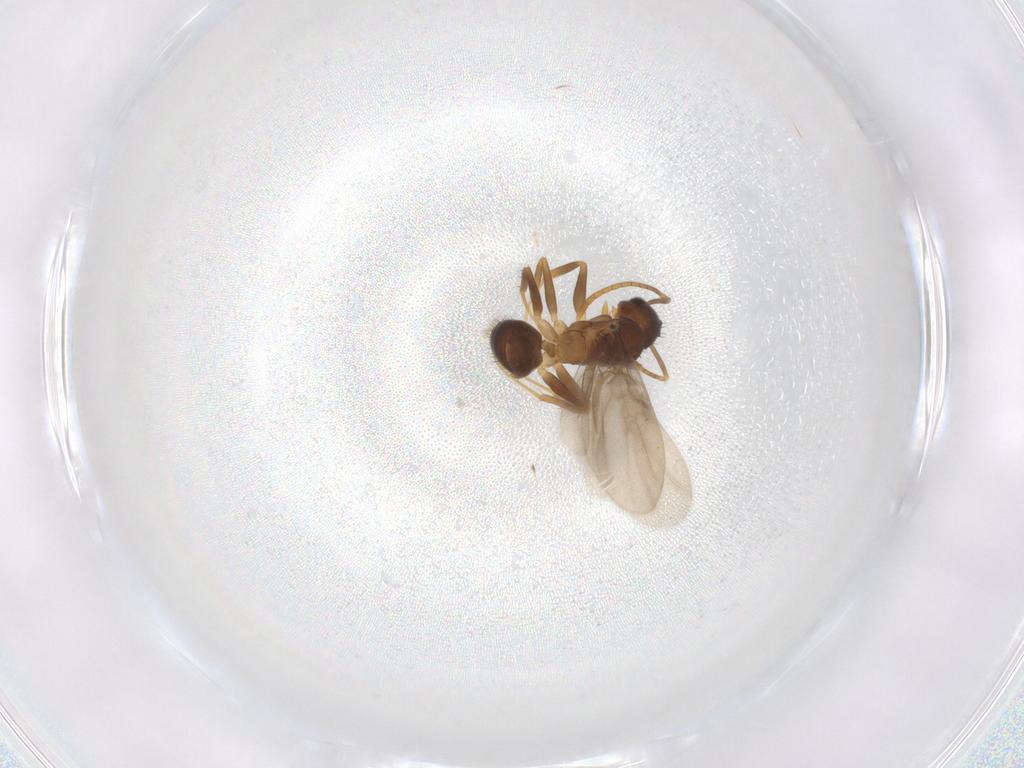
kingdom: Animalia
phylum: Arthropoda
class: Insecta
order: Hymenoptera
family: Formicidae
